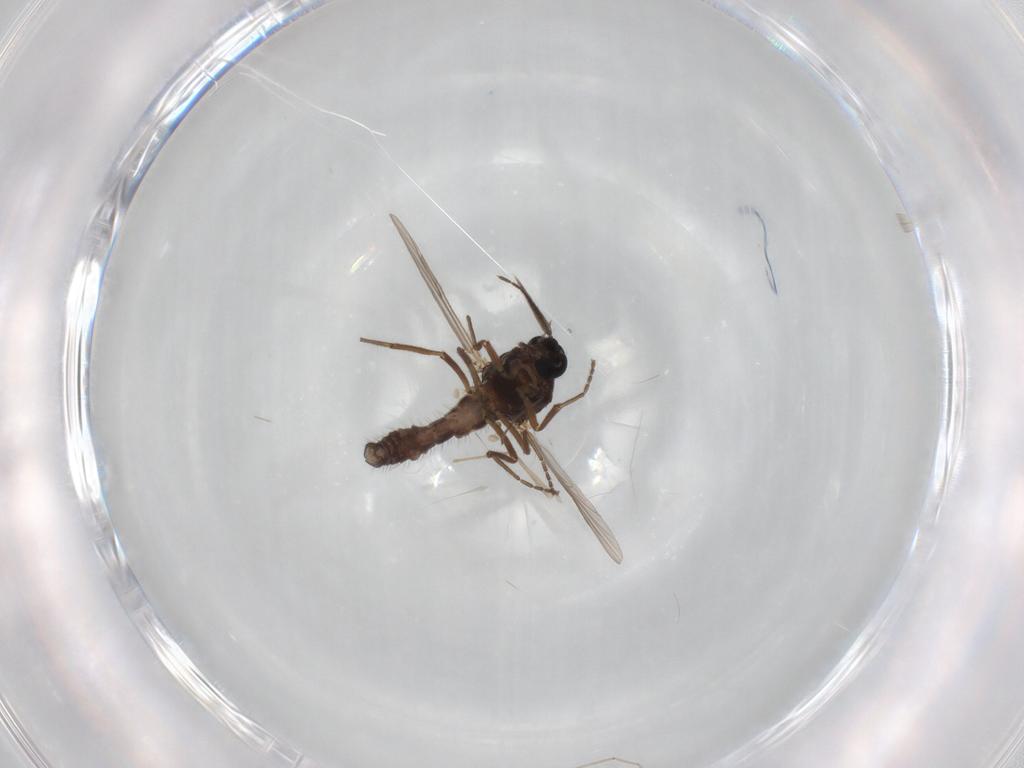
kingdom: Animalia
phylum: Arthropoda
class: Insecta
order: Diptera
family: Ceratopogonidae
